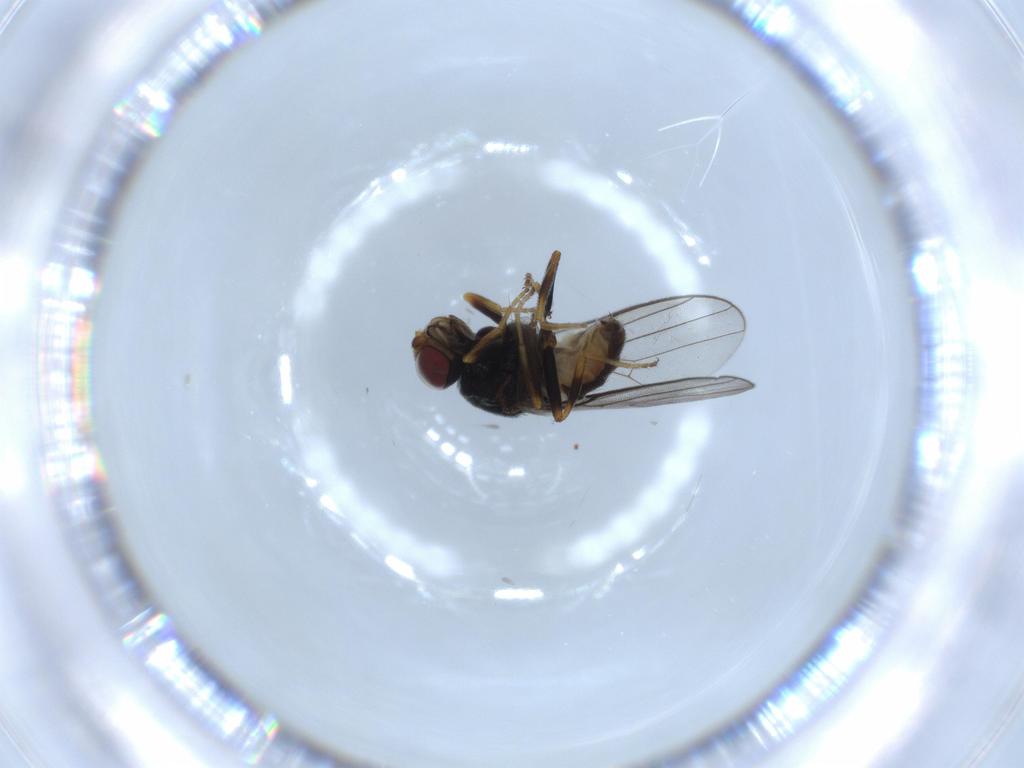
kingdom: Animalia
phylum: Arthropoda
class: Insecta
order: Diptera
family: Chloropidae
